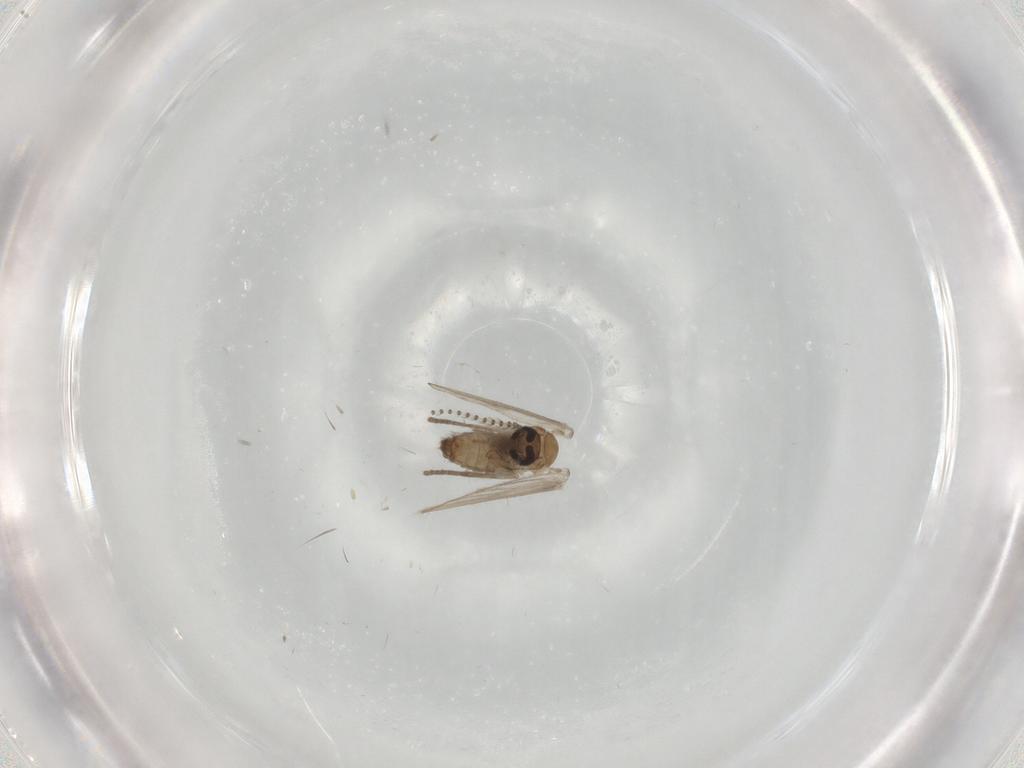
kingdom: Animalia
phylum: Arthropoda
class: Insecta
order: Diptera
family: Psychodidae
